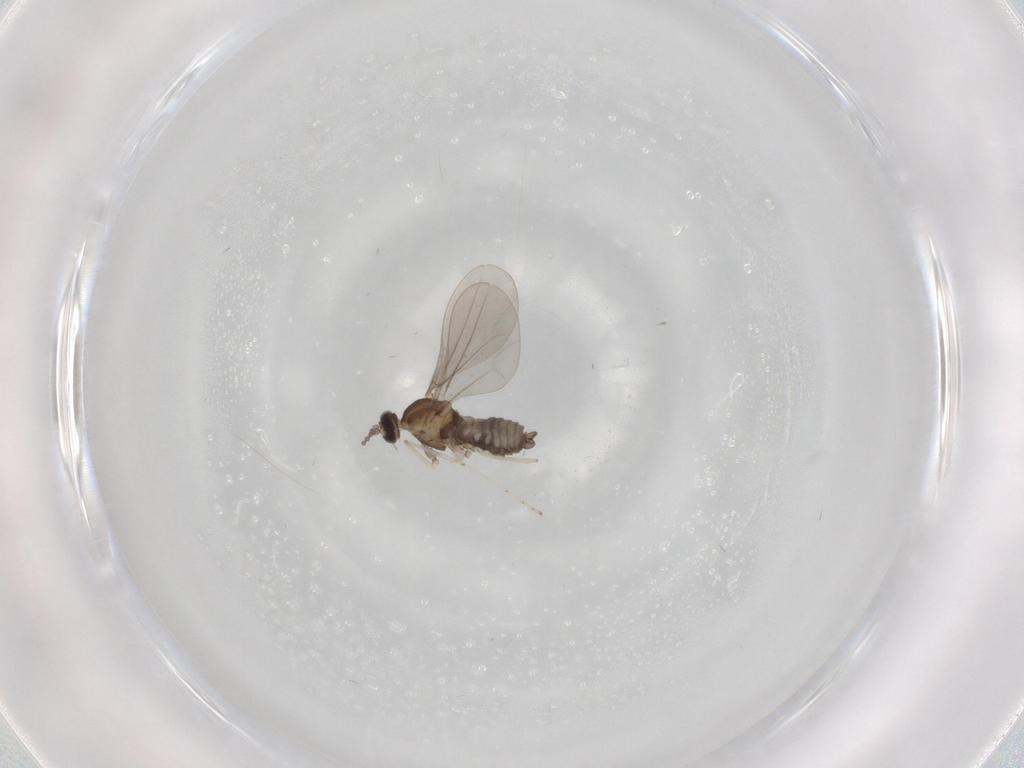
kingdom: Animalia
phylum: Arthropoda
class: Insecta
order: Diptera
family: Cecidomyiidae
